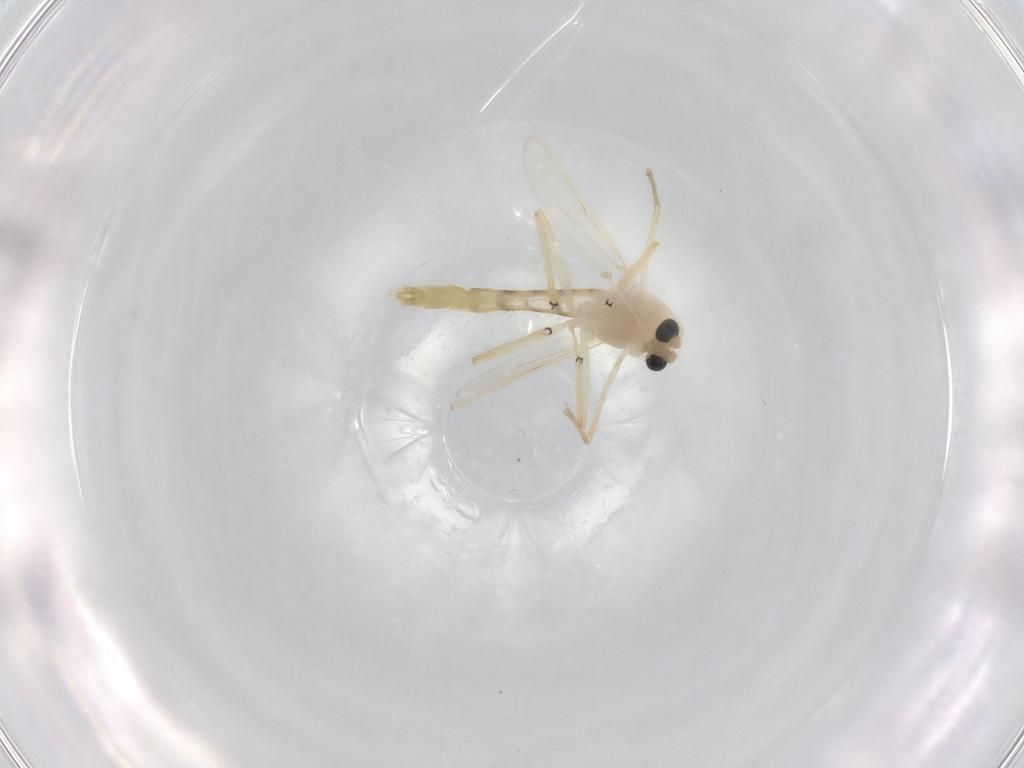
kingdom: Animalia
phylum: Arthropoda
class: Insecta
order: Diptera
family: Chironomidae
